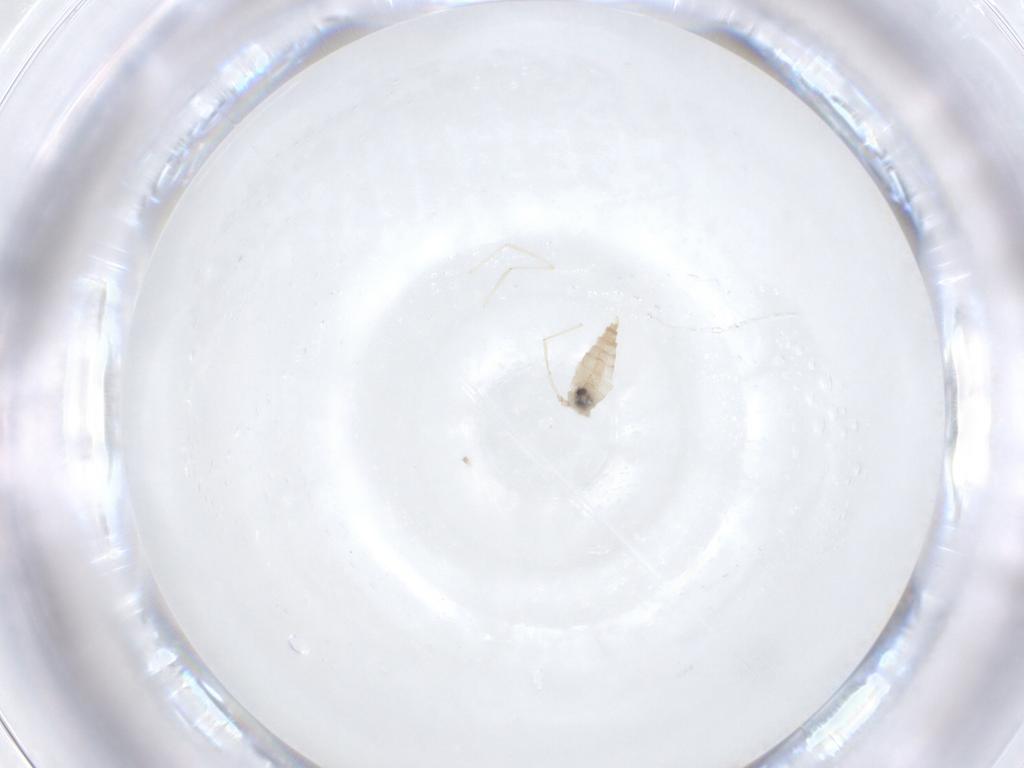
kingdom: Animalia
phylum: Arthropoda
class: Insecta
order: Diptera
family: Cecidomyiidae
